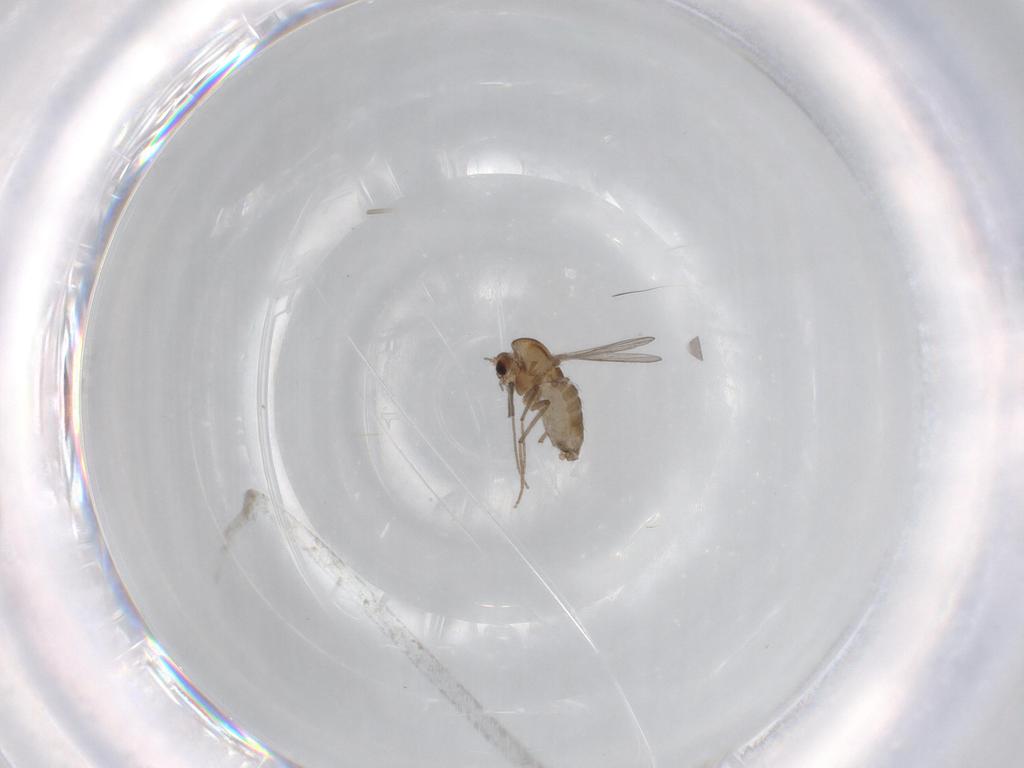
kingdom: Animalia
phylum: Arthropoda
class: Insecta
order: Diptera
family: Chironomidae
